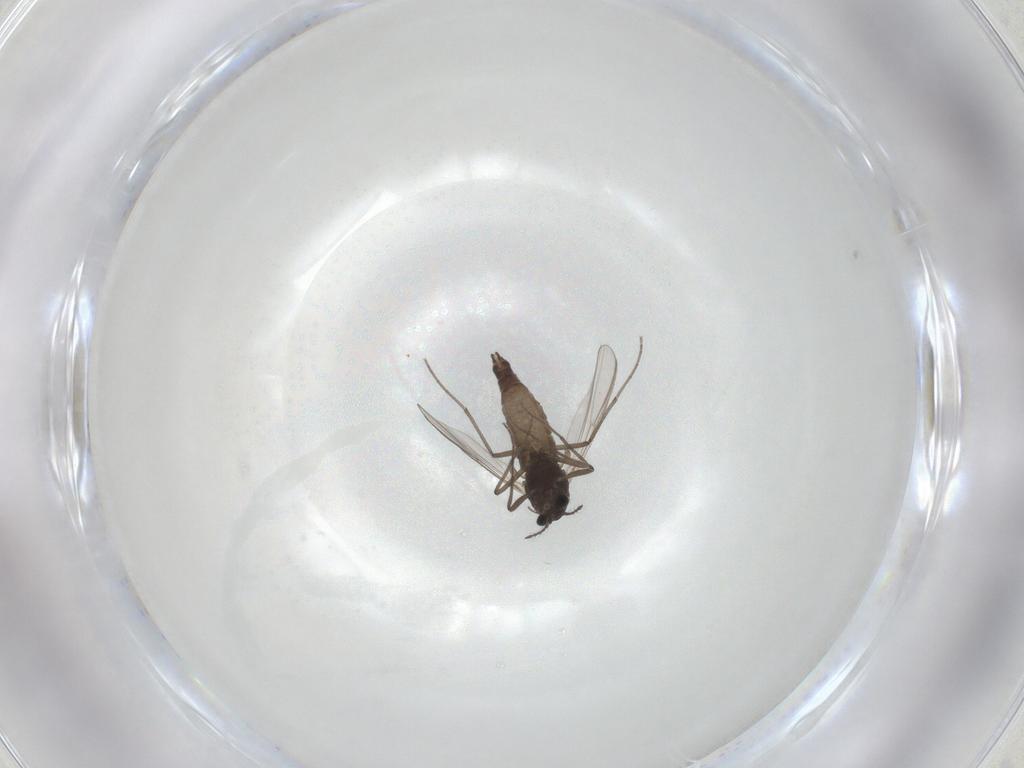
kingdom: Animalia
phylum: Arthropoda
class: Insecta
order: Diptera
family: Chironomidae
